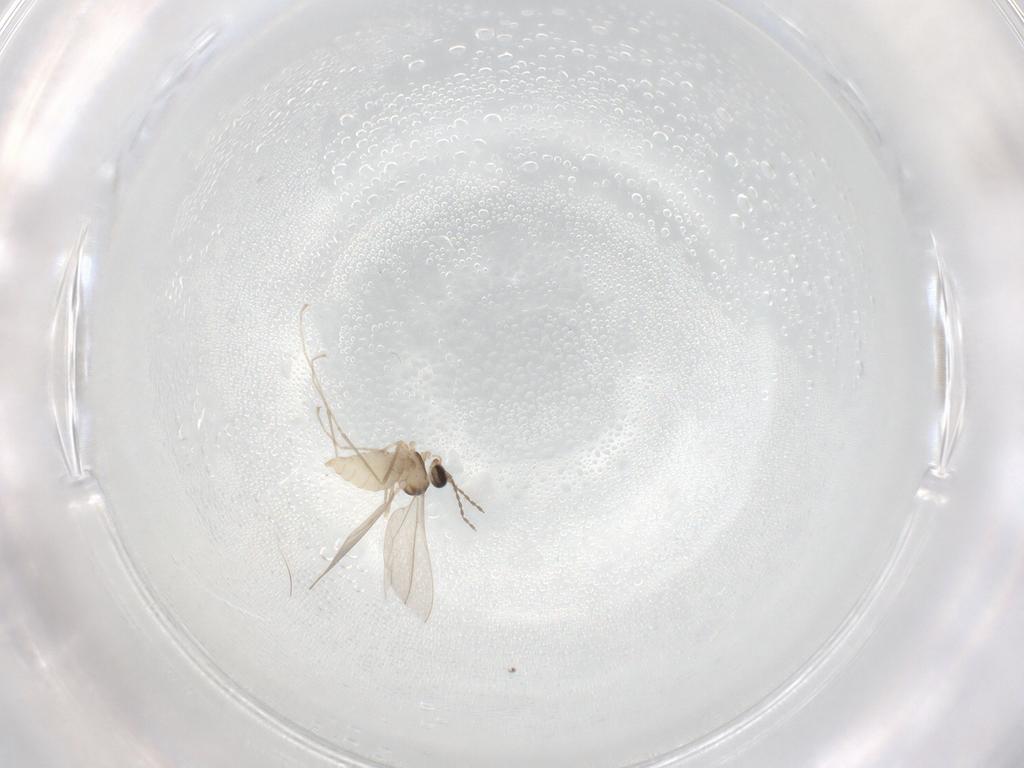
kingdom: Animalia
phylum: Arthropoda
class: Insecta
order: Diptera
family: Cecidomyiidae
